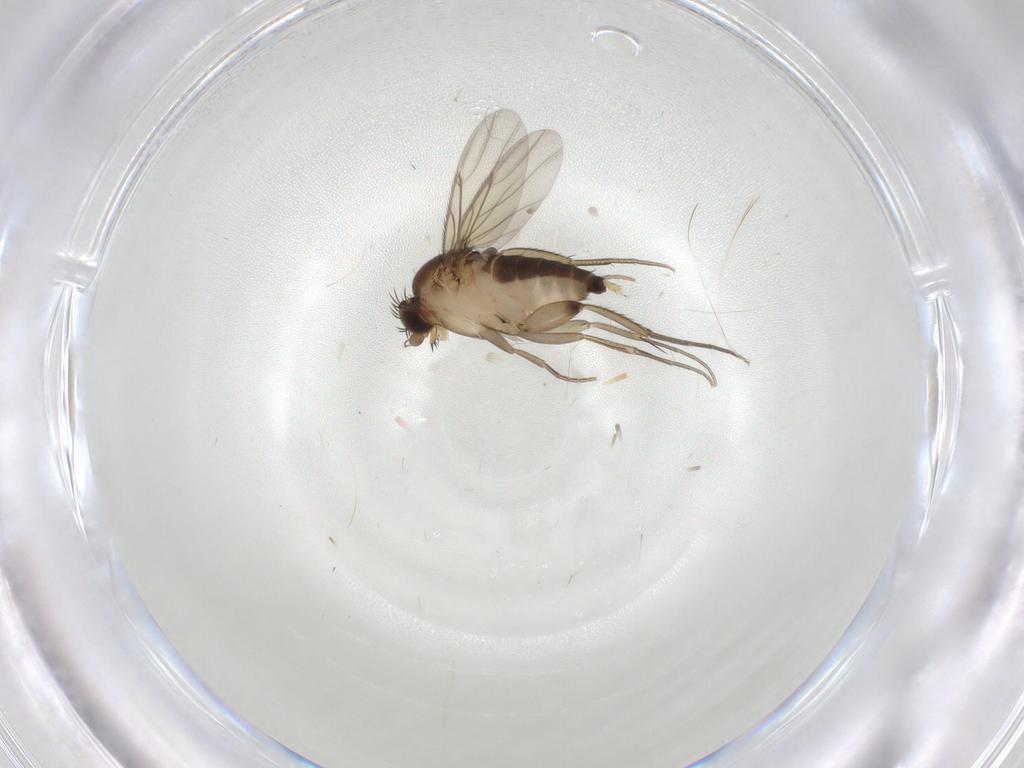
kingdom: Animalia
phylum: Arthropoda
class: Insecta
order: Diptera
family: Phoridae
